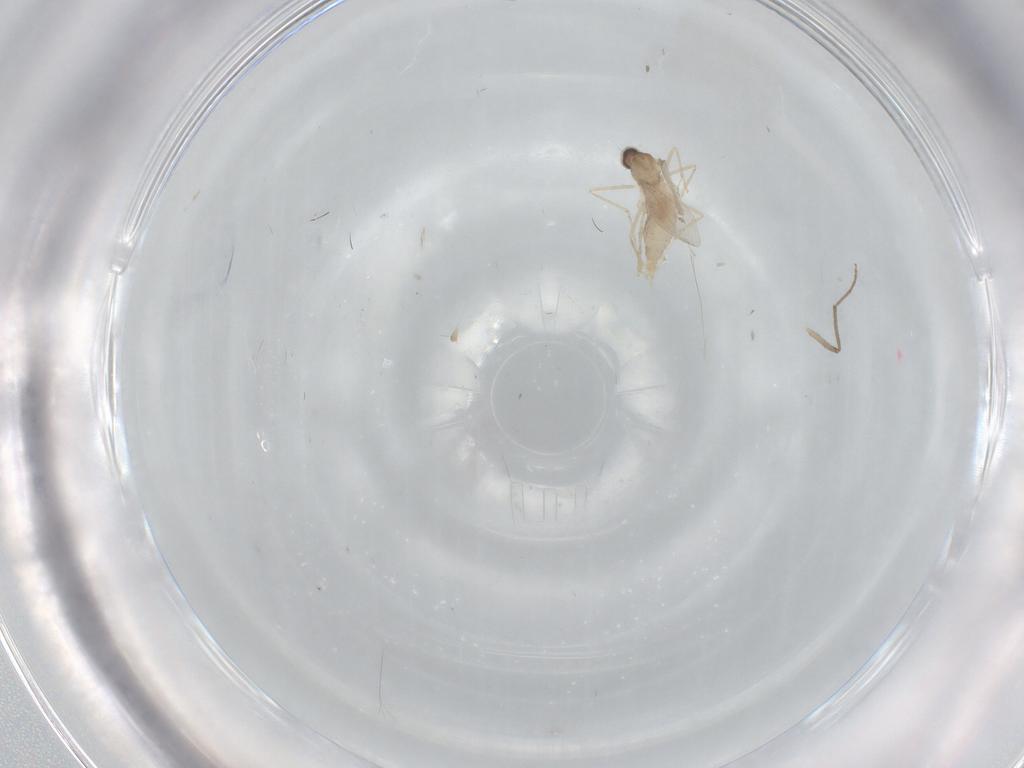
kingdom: Animalia
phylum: Arthropoda
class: Insecta
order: Diptera
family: Cecidomyiidae
